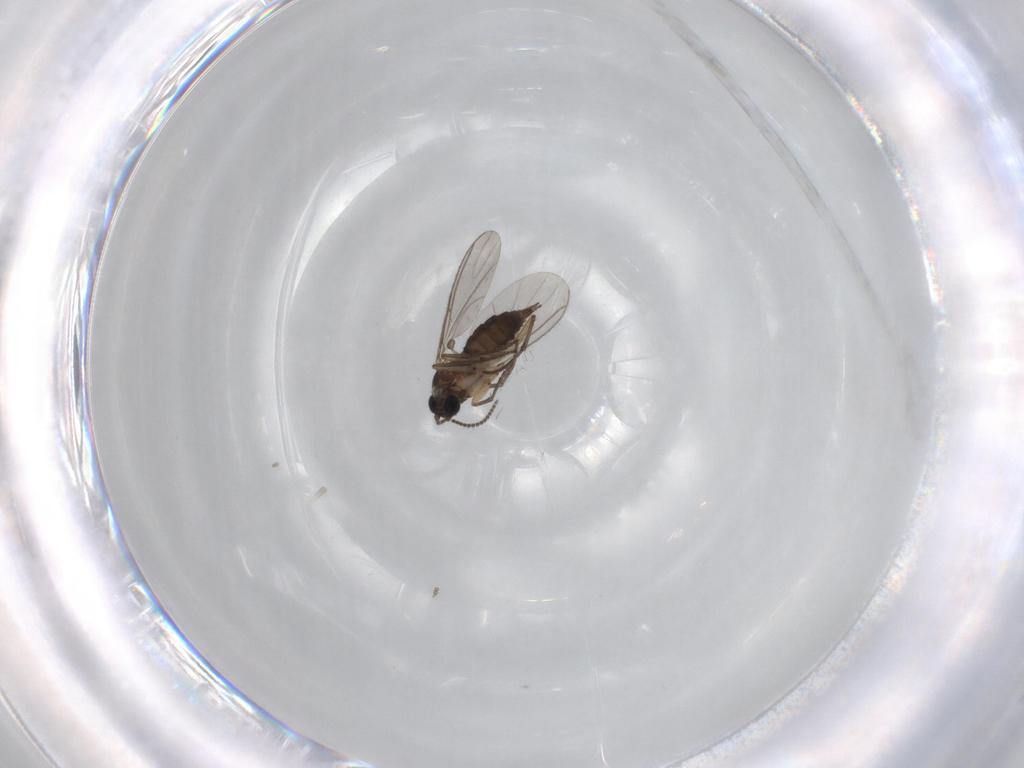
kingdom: Animalia
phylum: Arthropoda
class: Insecta
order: Diptera
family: Sciaridae
